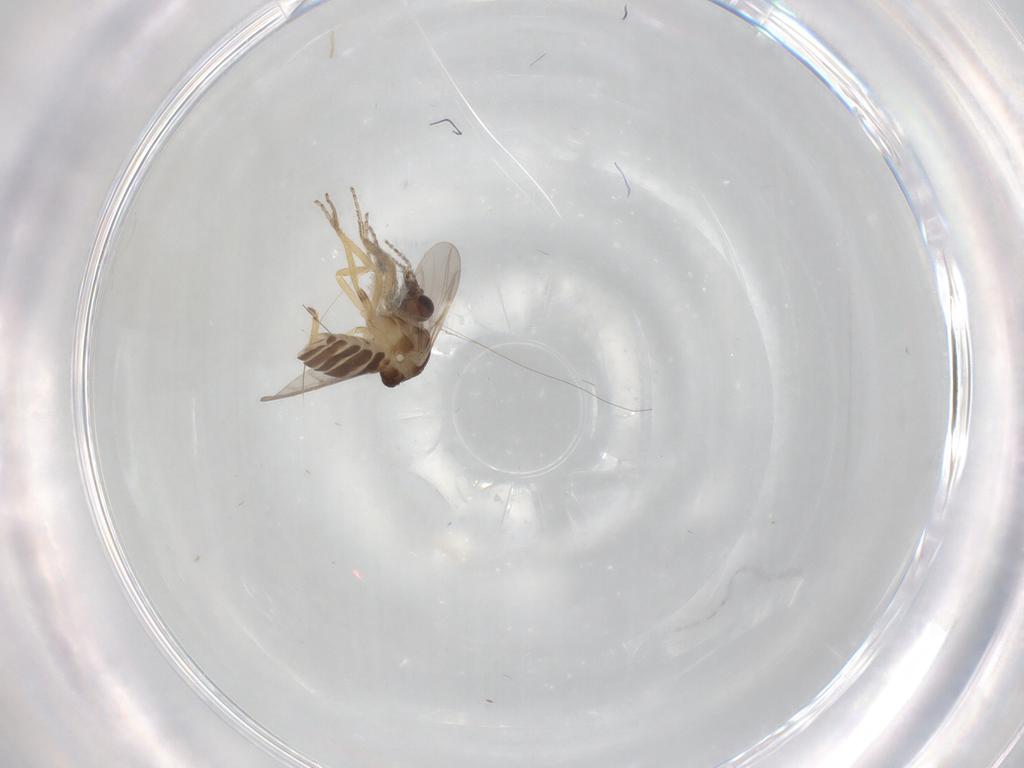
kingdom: Animalia
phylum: Arthropoda
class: Insecta
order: Diptera
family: Ceratopogonidae
